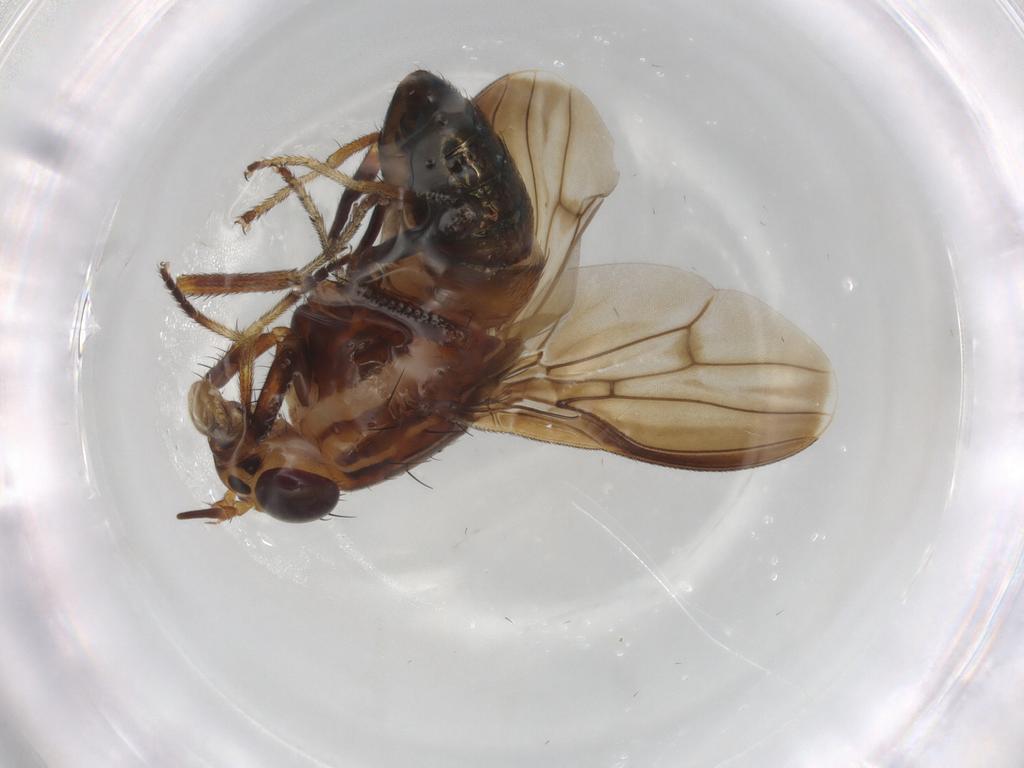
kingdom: Animalia
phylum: Arthropoda
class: Insecta
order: Diptera
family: Lauxaniidae
